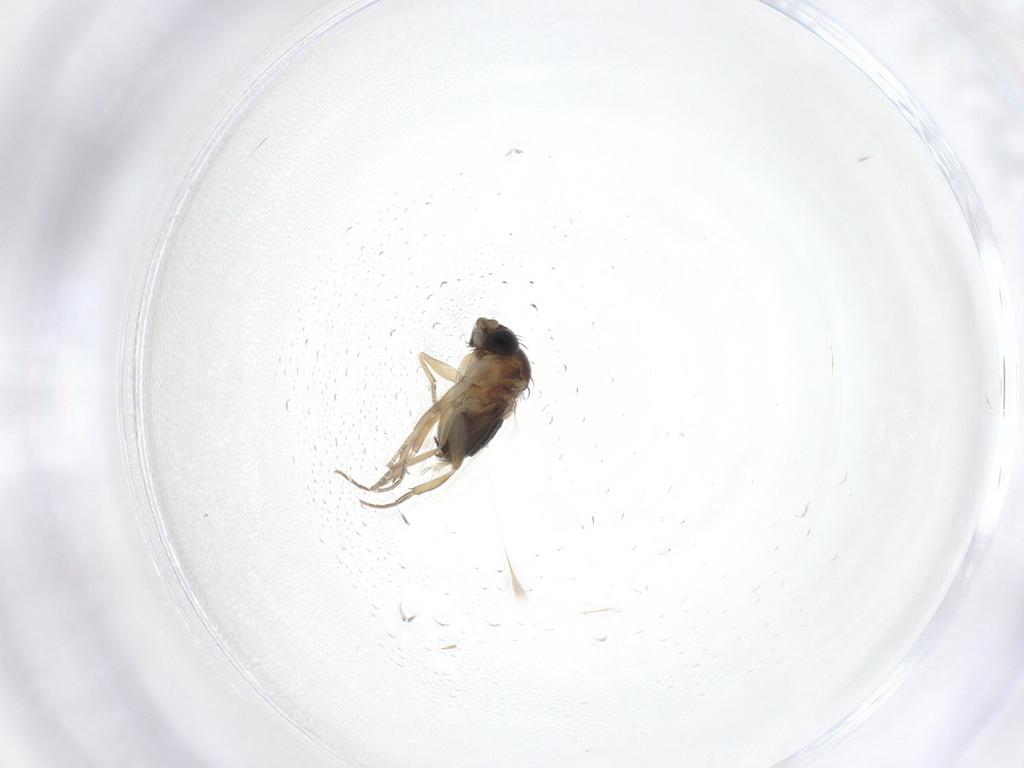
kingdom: Animalia
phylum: Arthropoda
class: Insecta
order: Diptera
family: Phoridae
